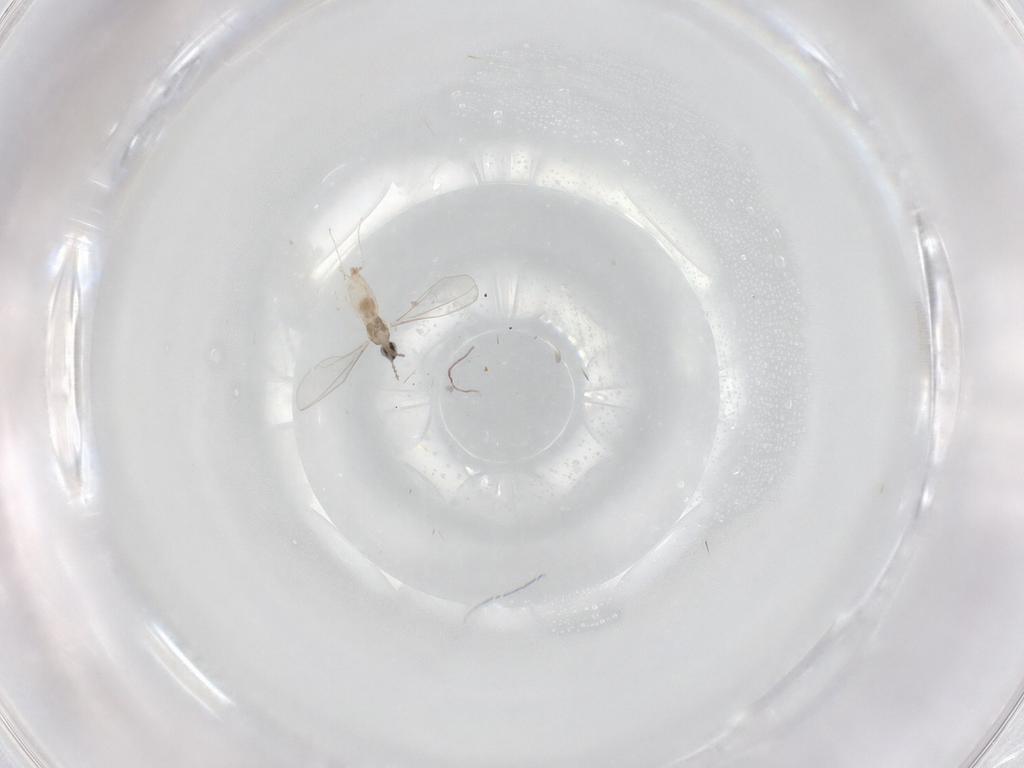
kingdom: Animalia
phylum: Arthropoda
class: Insecta
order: Diptera
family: Cecidomyiidae
